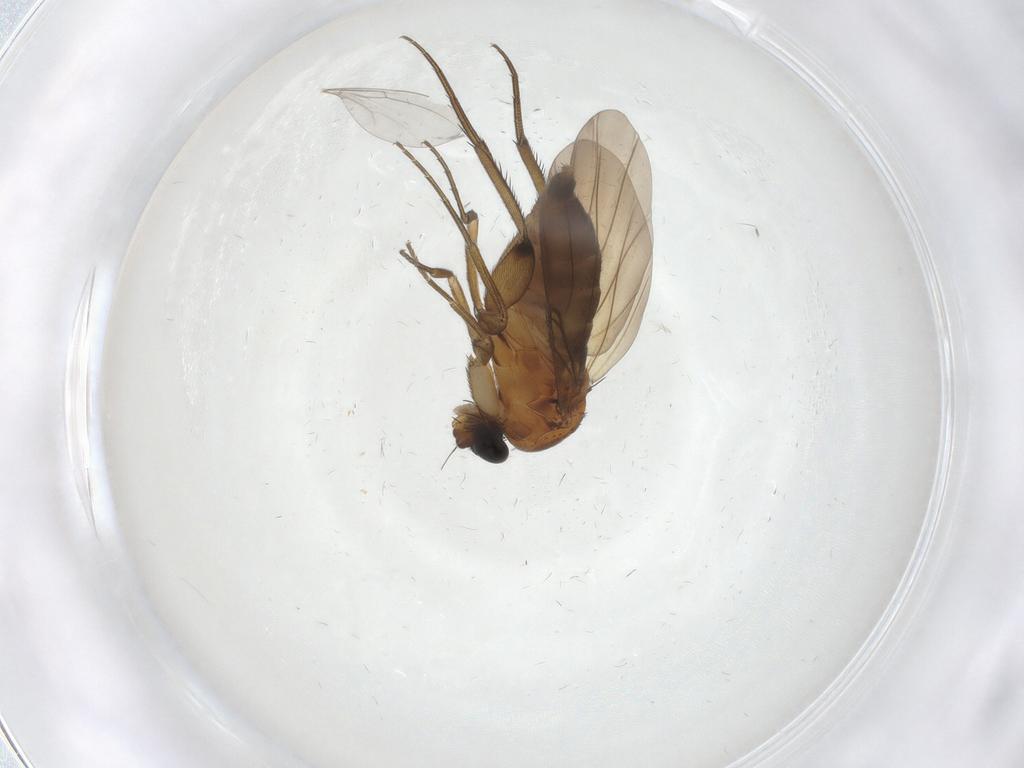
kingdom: Animalia
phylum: Arthropoda
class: Insecta
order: Diptera
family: Phoridae
